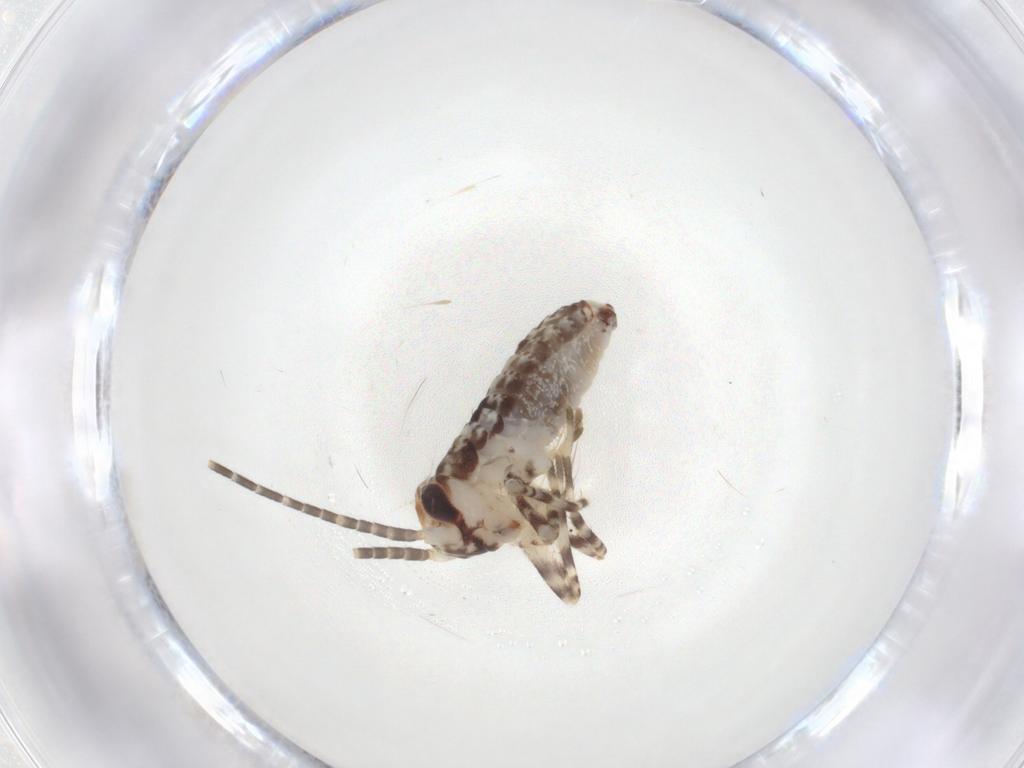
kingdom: Animalia
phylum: Arthropoda
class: Insecta
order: Orthoptera
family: Gryllidae
